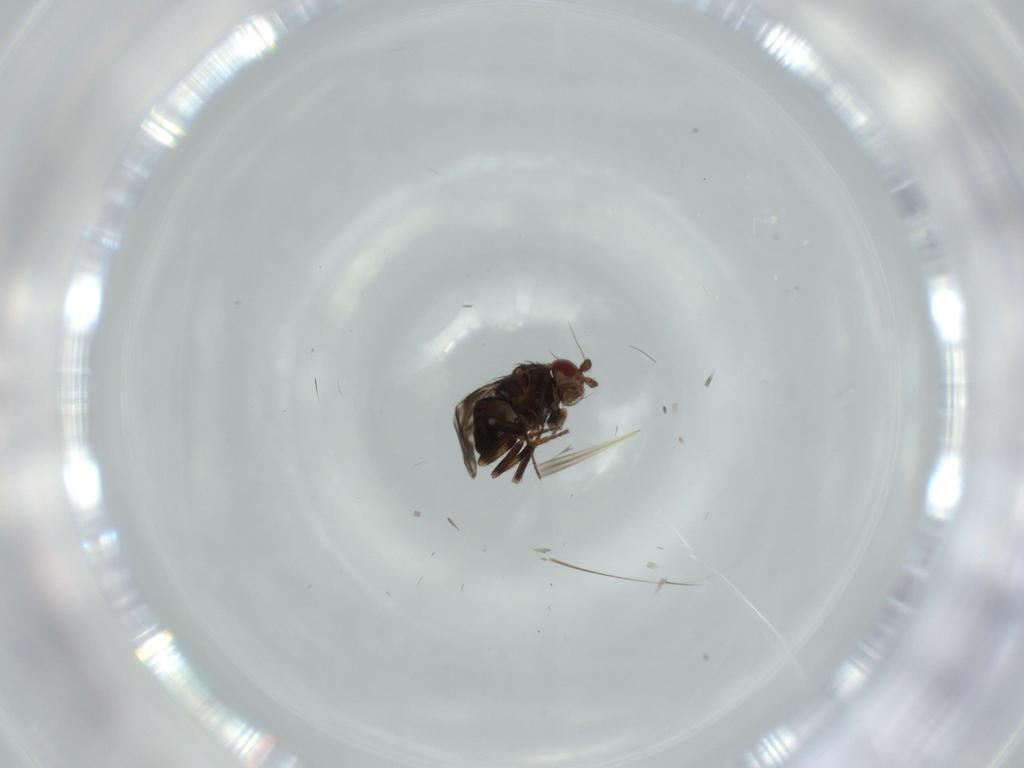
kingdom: Animalia
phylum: Arthropoda
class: Insecta
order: Diptera
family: Sphaeroceridae
